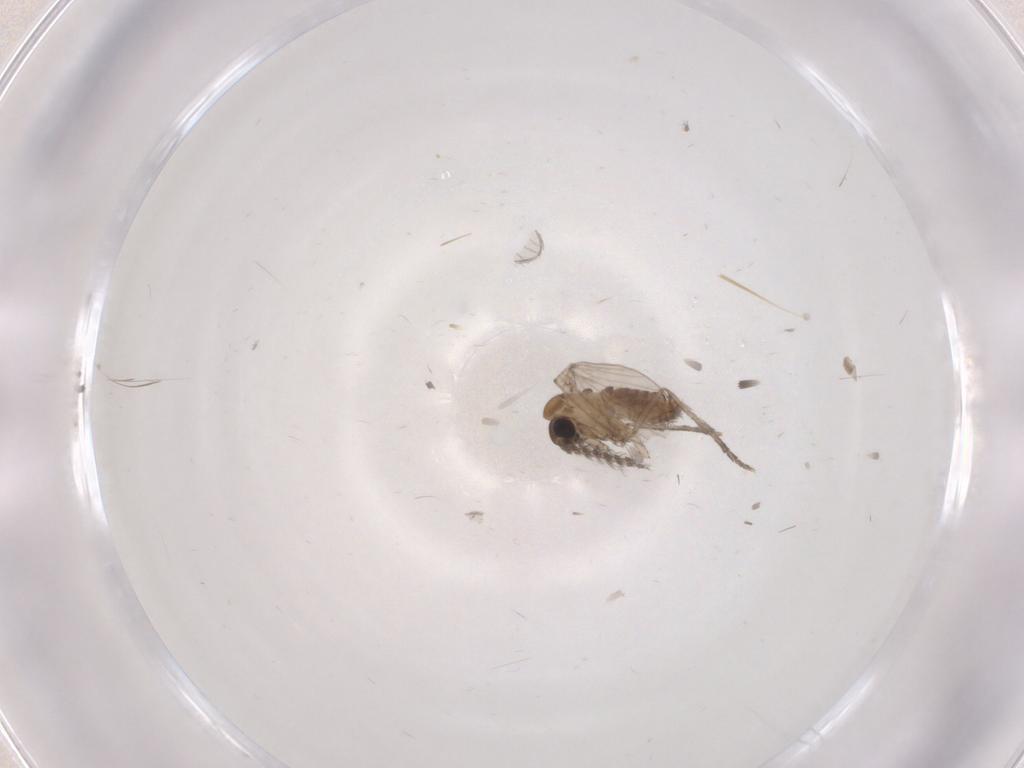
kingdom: Animalia
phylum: Arthropoda
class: Insecta
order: Diptera
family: Psychodidae
